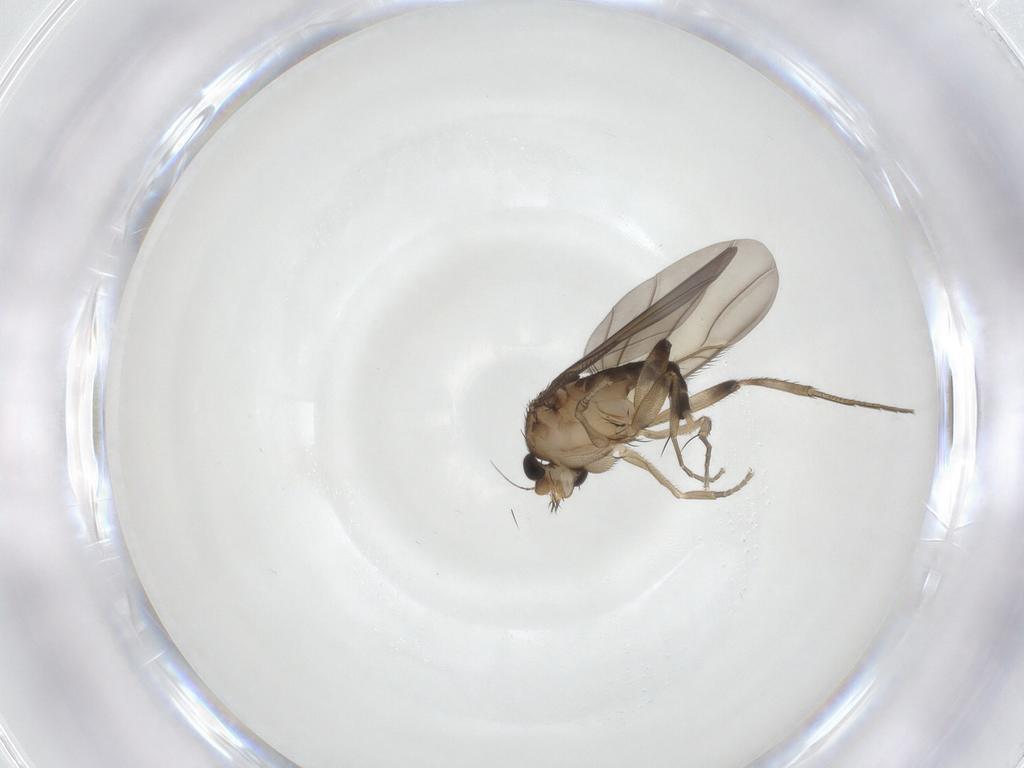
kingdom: Animalia
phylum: Arthropoda
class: Insecta
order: Diptera
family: Phoridae
